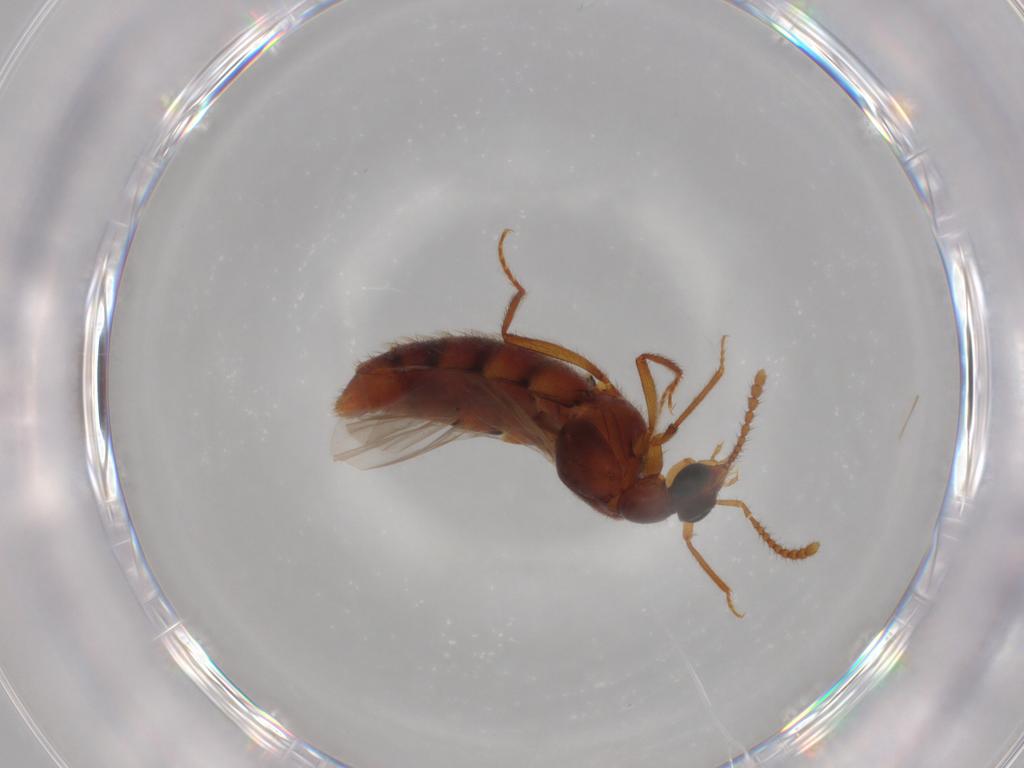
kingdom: Animalia
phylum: Arthropoda
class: Insecta
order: Coleoptera
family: Staphylinidae
